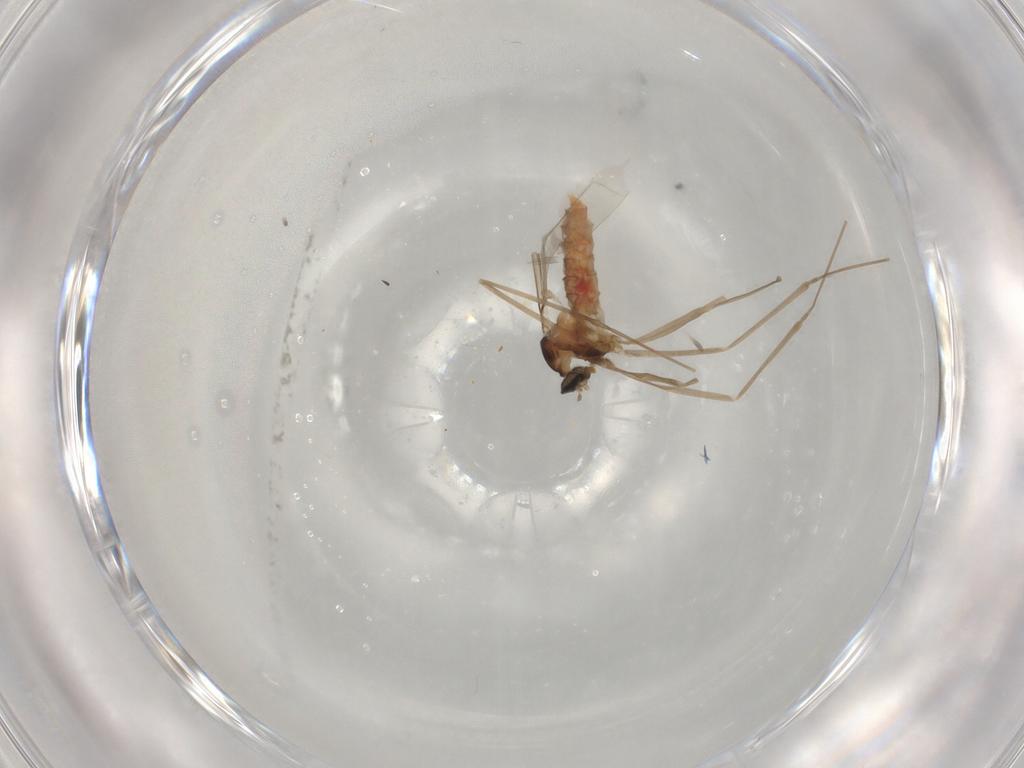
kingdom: Animalia
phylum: Arthropoda
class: Insecta
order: Diptera
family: Cecidomyiidae
